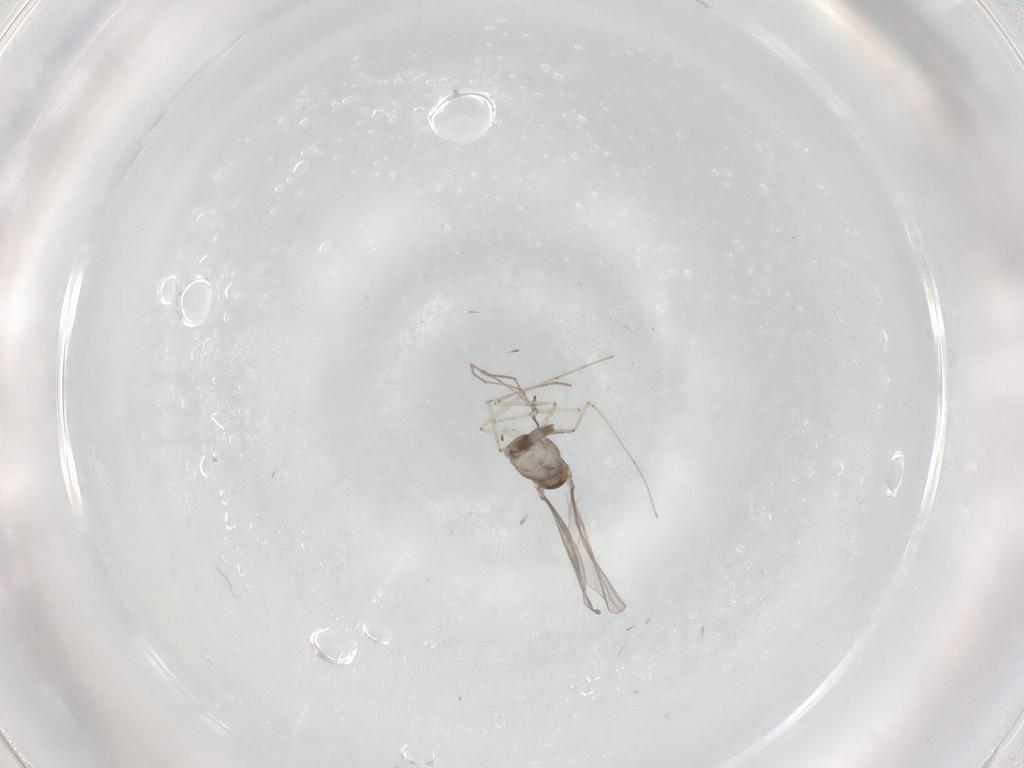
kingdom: Animalia
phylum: Arthropoda
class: Insecta
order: Diptera
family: Cecidomyiidae
